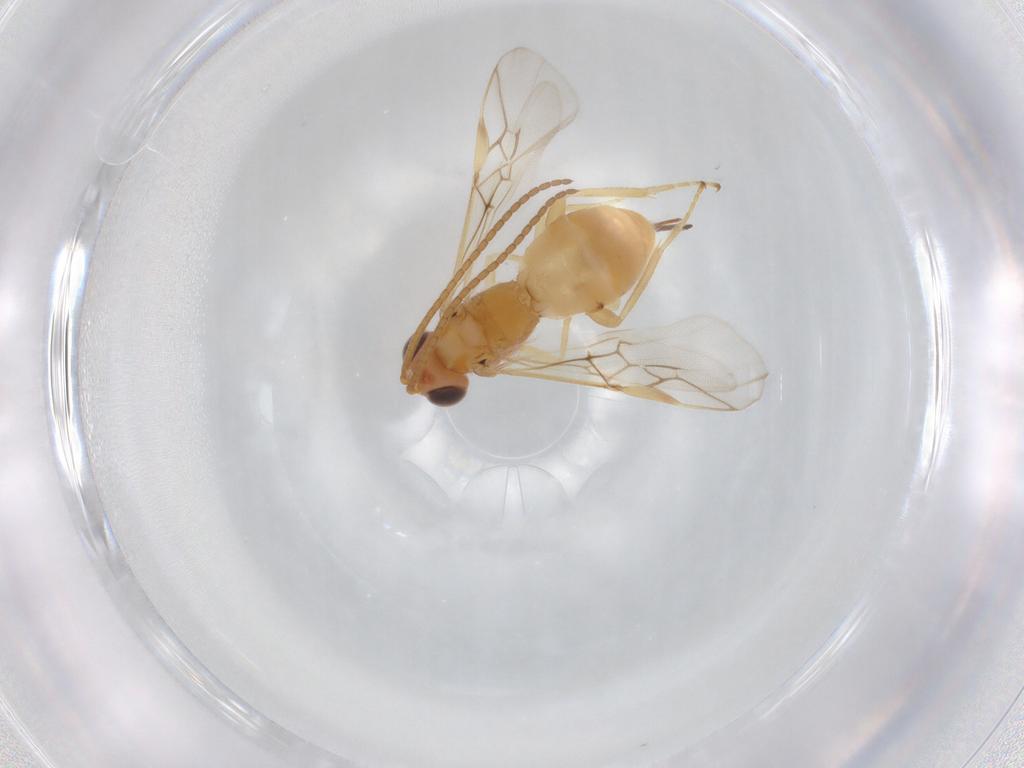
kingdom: Animalia
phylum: Arthropoda
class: Insecta
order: Hymenoptera
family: Braconidae
